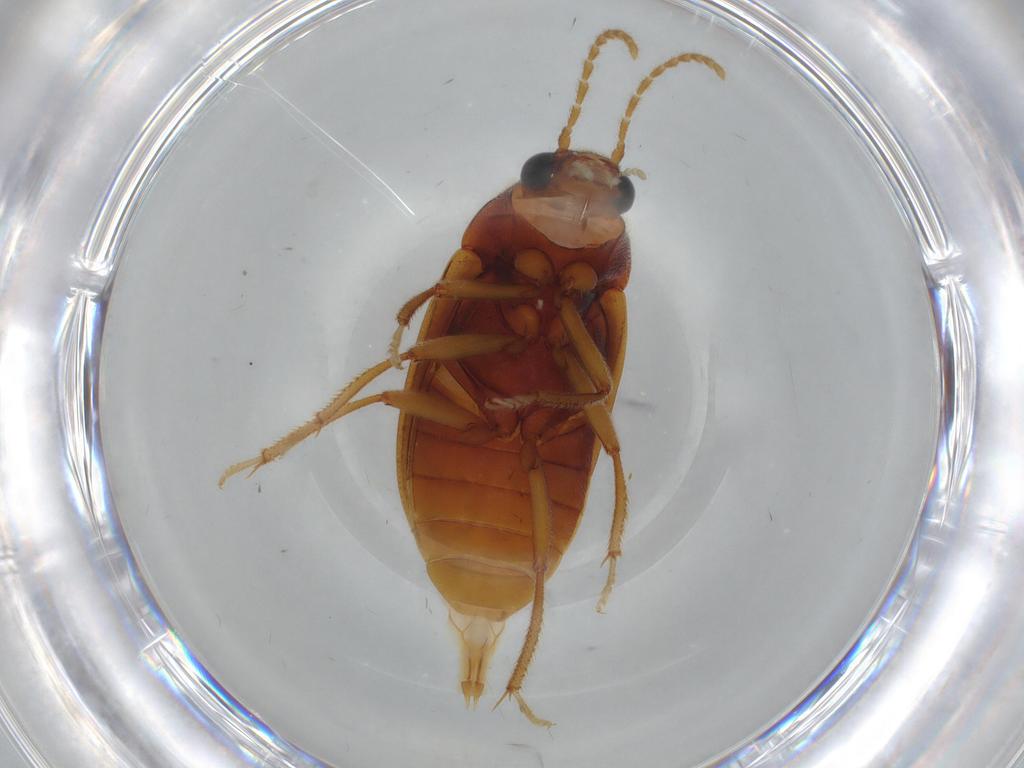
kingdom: Animalia
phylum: Arthropoda
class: Insecta
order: Coleoptera
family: Ptilodactylidae
